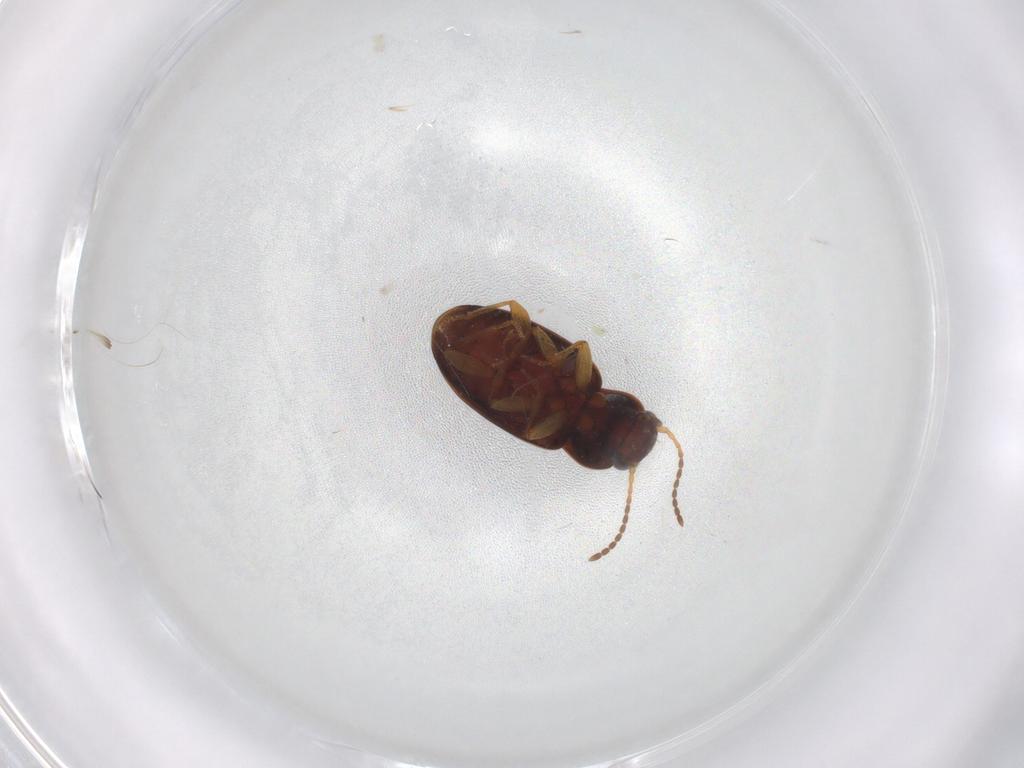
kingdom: Animalia
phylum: Arthropoda
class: Insecta
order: Coleoptera
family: Carabidae
